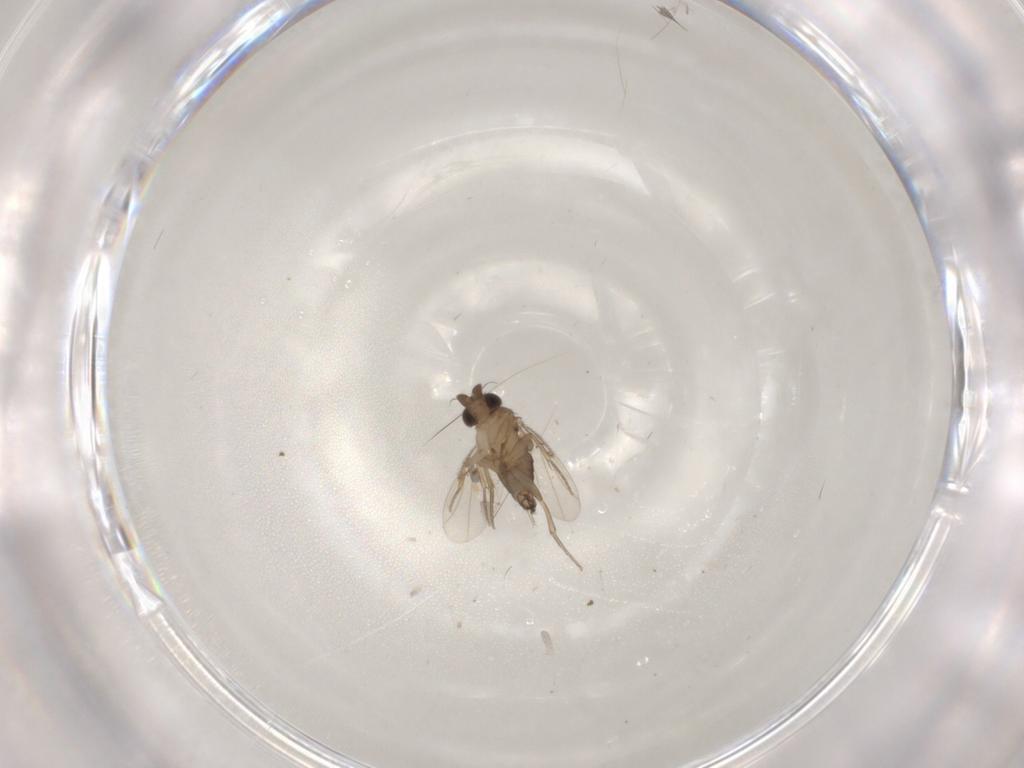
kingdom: Animalia
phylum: Arthropoda
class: Insecta
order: Diptera
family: Phoridae
